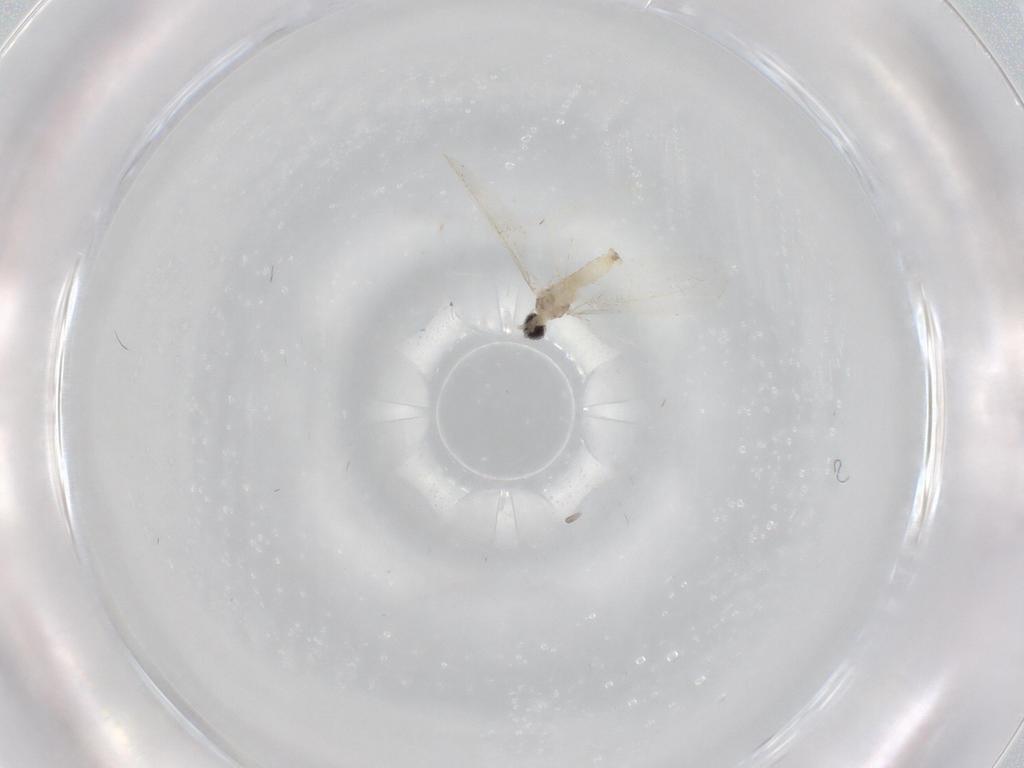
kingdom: Animalia
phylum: Arthropoda
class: Insecta
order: Diptera
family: Cecidomyiidae
